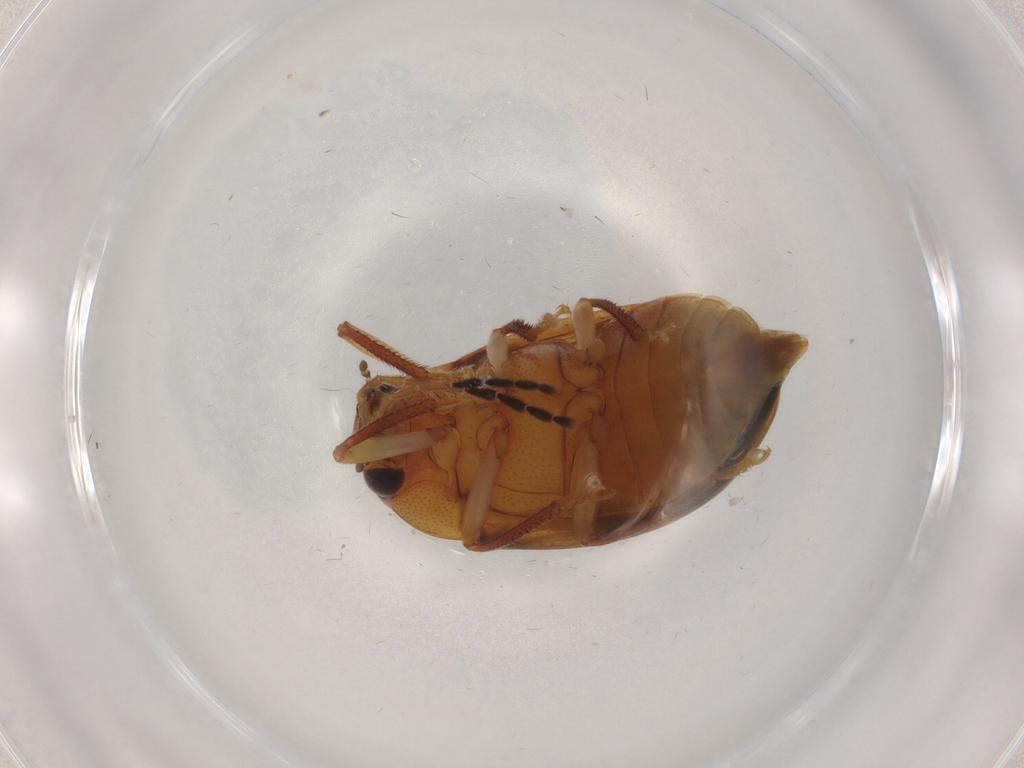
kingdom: Animalia
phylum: Arthropoda
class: Insecta
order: Coleoptera
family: Ptilodactylidae
